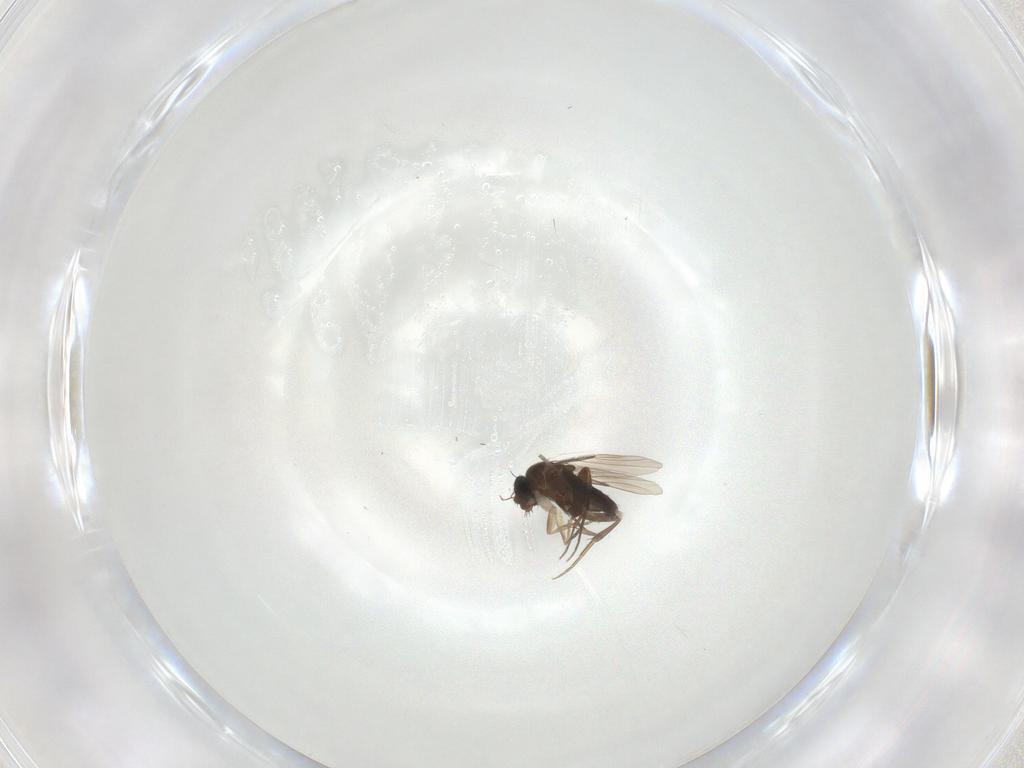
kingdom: Animalia
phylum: Arthropoda
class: Insecta
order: Diptera
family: Phoridae
